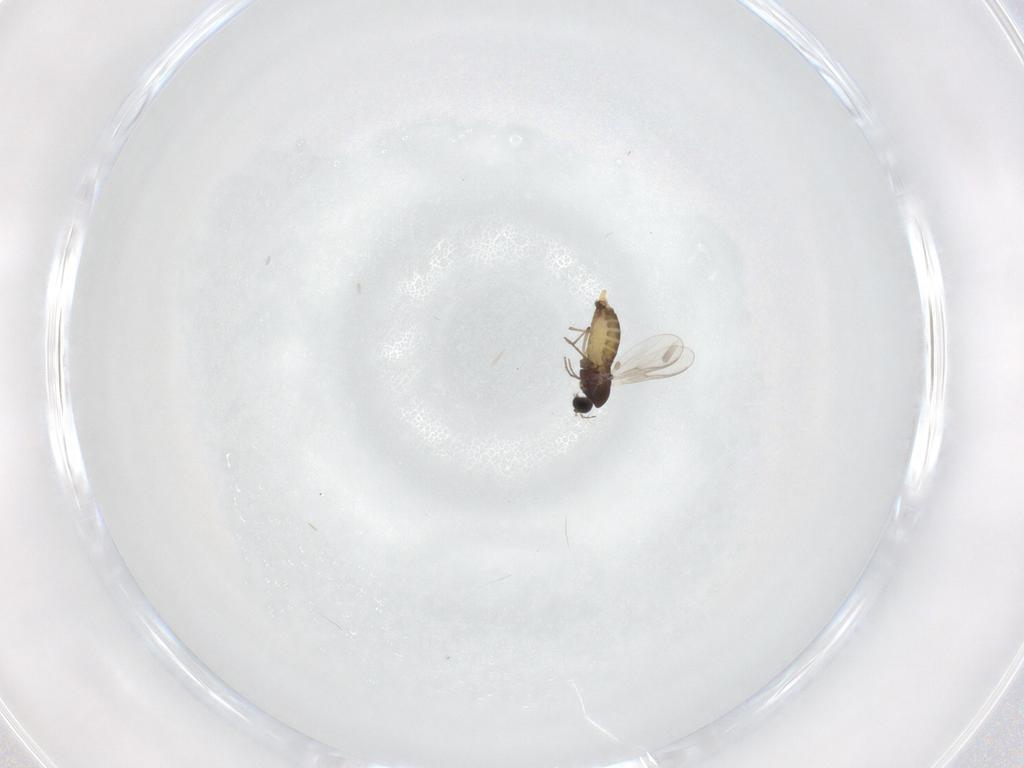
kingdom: Animalia
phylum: Arthropoda
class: Insecta
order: Diptera
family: Cecidomyiidae
